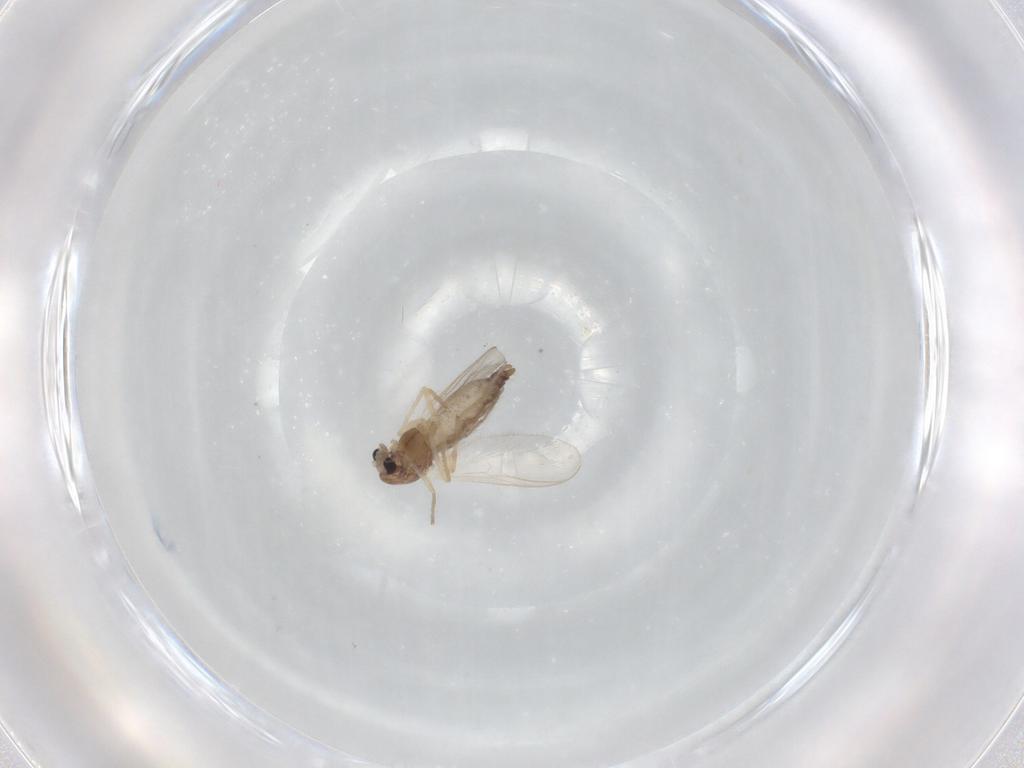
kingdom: Animalia
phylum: Arthropoda
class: Insecta
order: Diptera
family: Chironomidae
